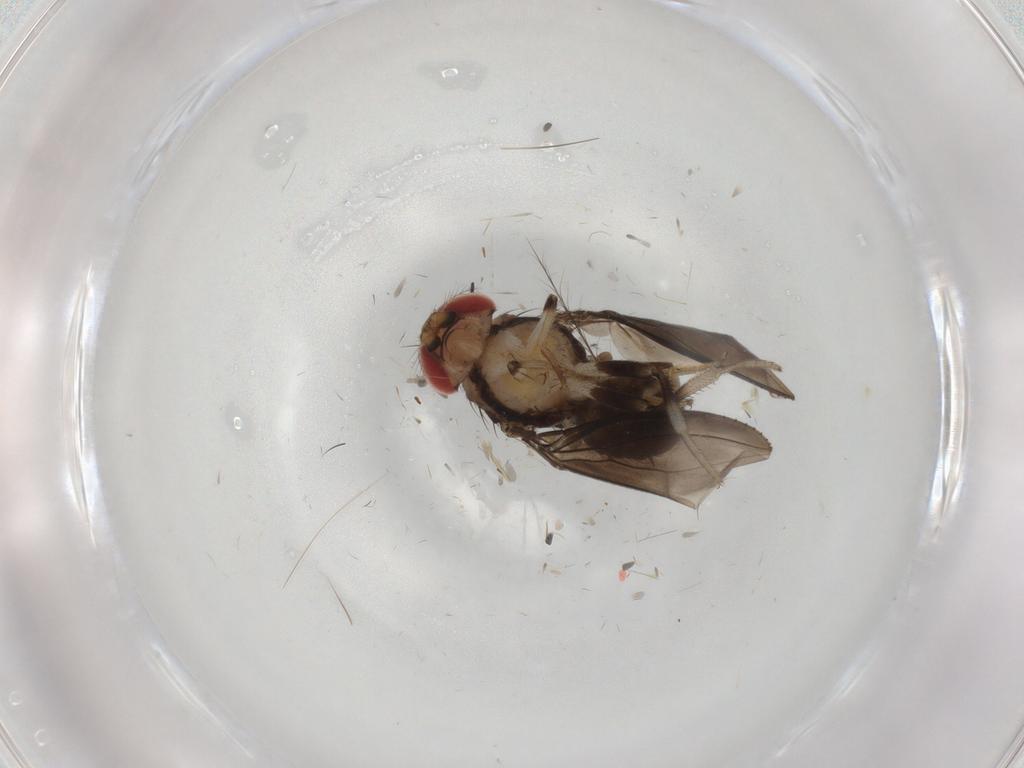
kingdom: Animalia
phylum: Arthropoda
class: Insecta
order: Diptera
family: Drosophilidae
